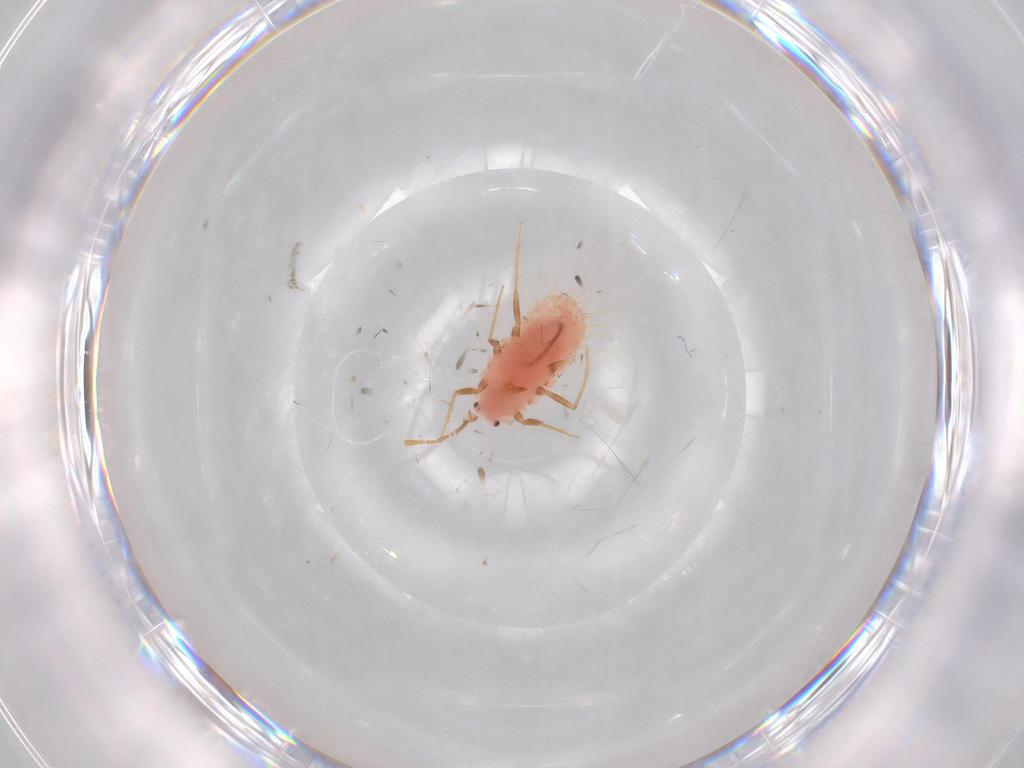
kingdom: Animalia
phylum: Arthropoda
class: Insecta
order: Hemiptera
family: Coccoidea_incertae_sedis
